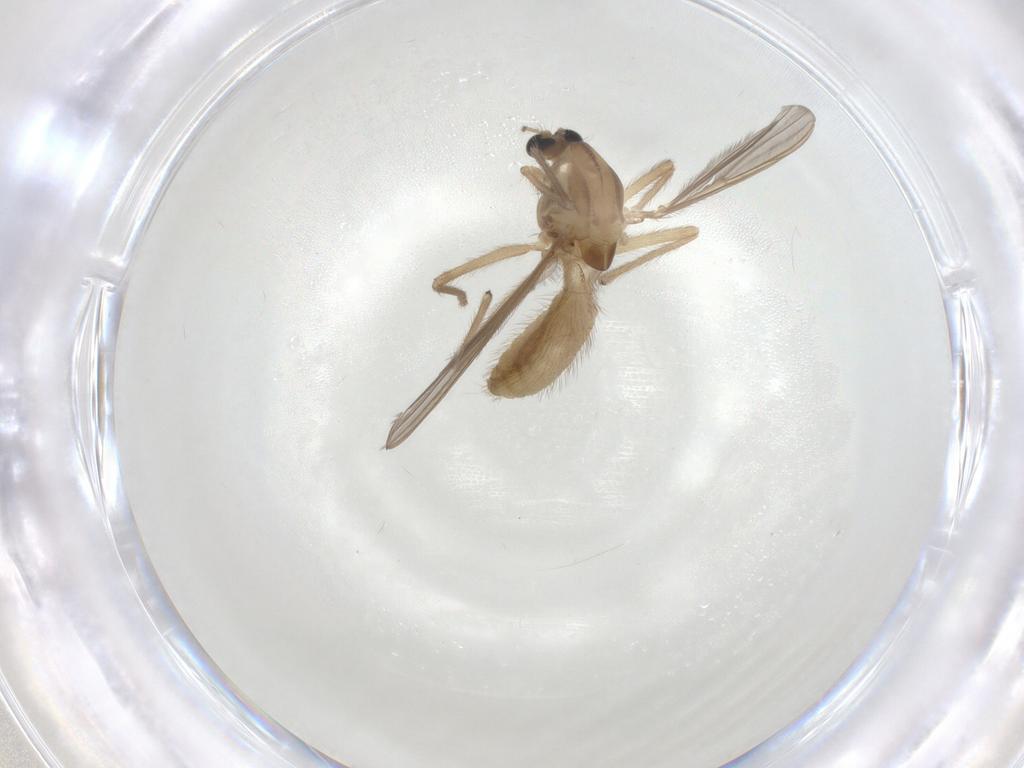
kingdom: Animalia
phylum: Arthropoda
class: Insecta
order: Diptera
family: Chironomidae
